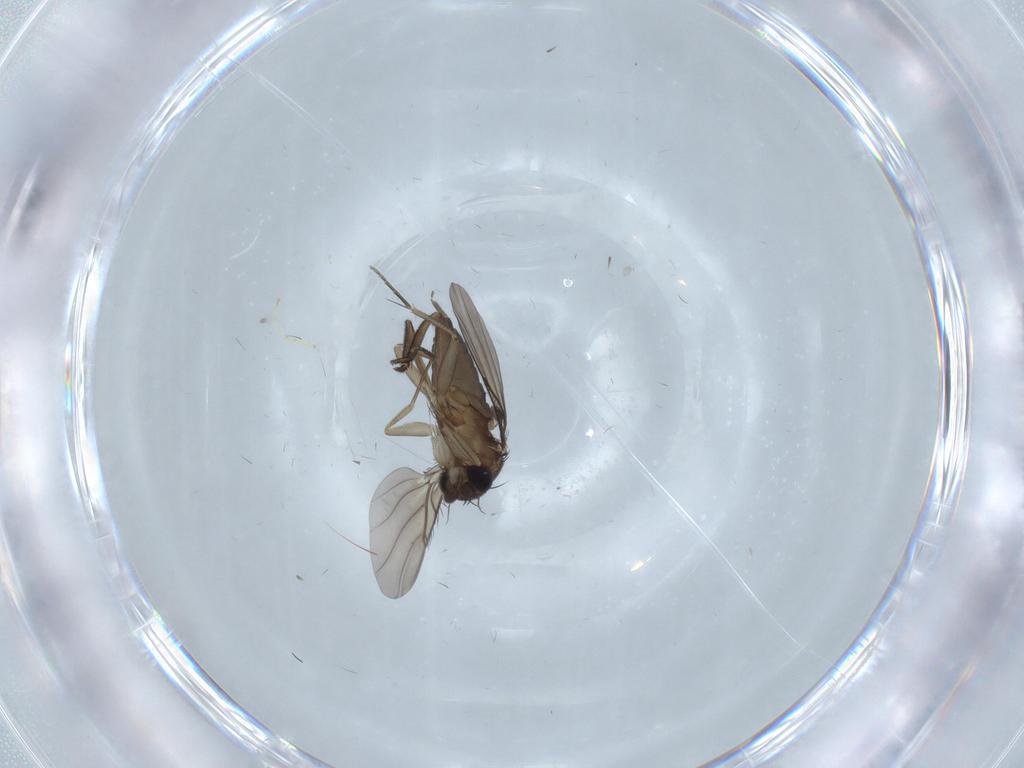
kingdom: Animalia
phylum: Arthropoda
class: Insecta
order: Diptera
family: Phoridae
